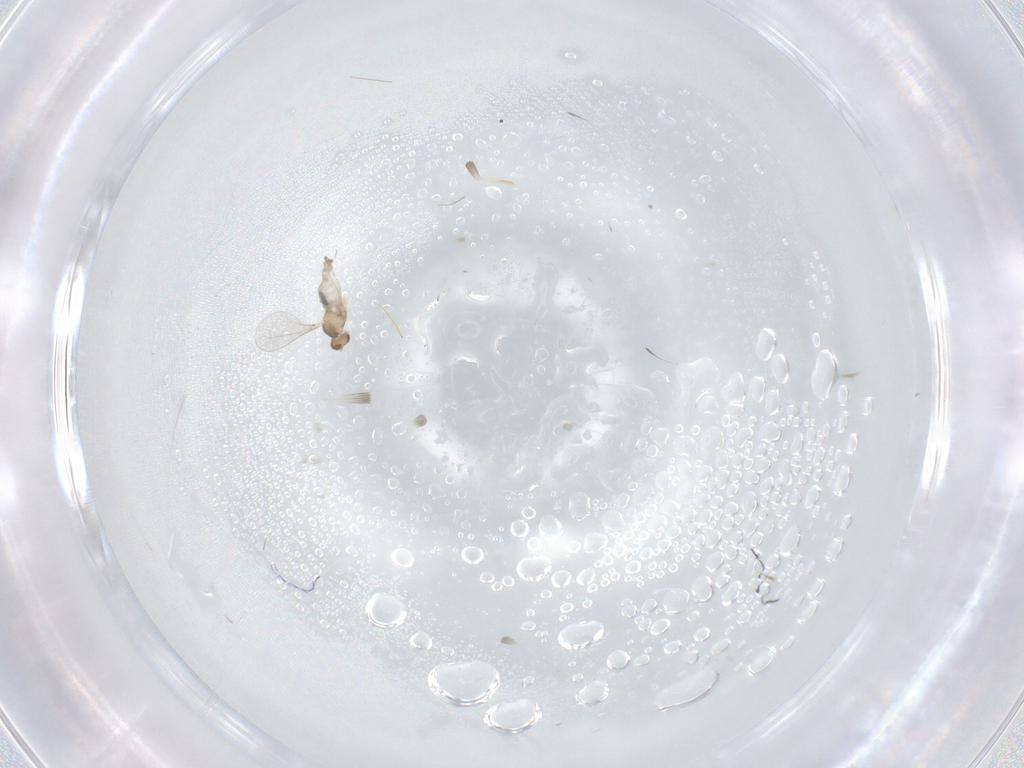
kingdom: Animalia
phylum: Arthropoda
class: Insecta
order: Diptera
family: Cecidomyiidae
